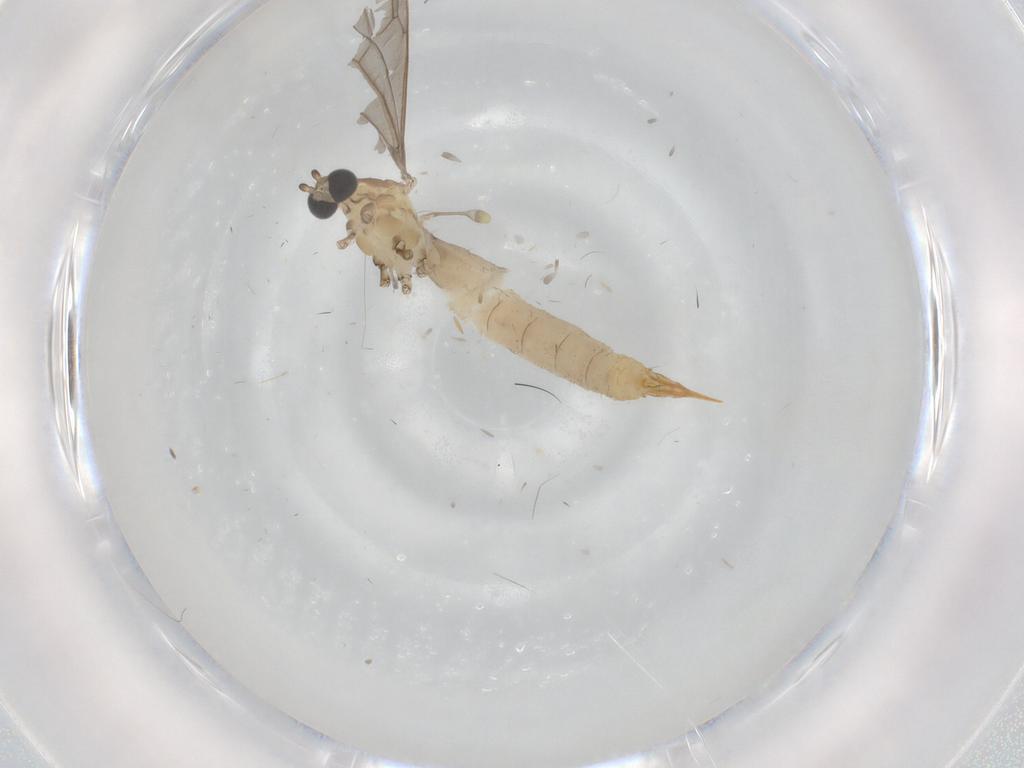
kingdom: Animalia
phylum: Arthropoda
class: Insecta
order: Diptera
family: Limoniidae
